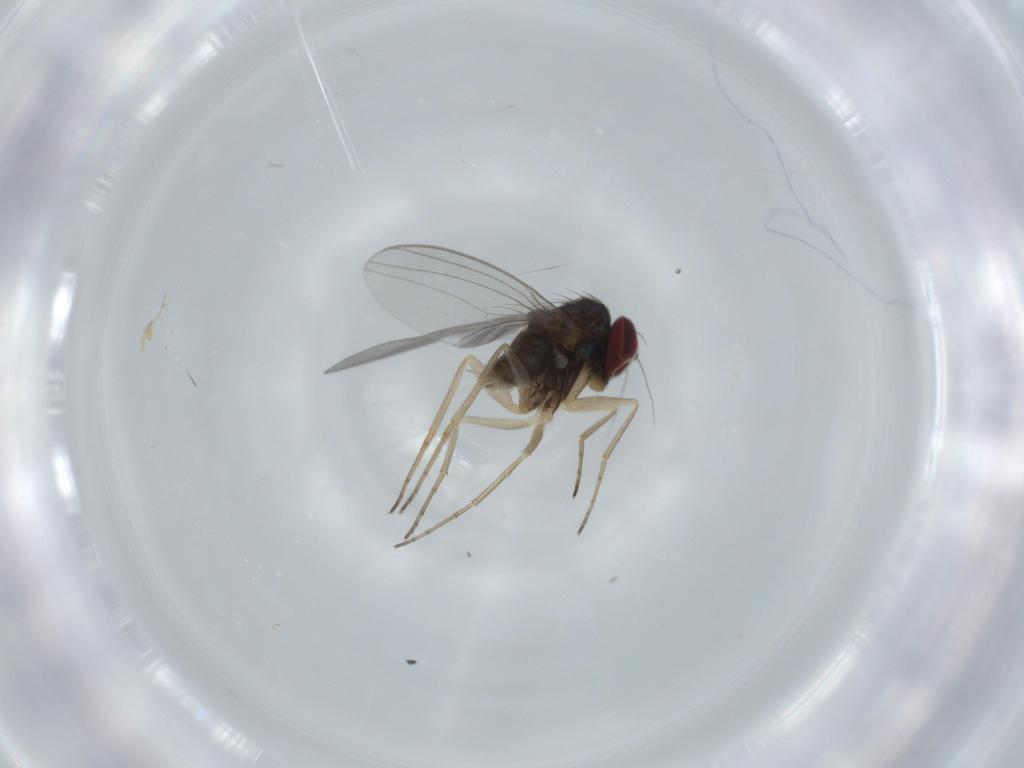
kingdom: Animalia
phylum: Arthropoda
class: Insecta
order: Diptera
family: Dolichopodidae
